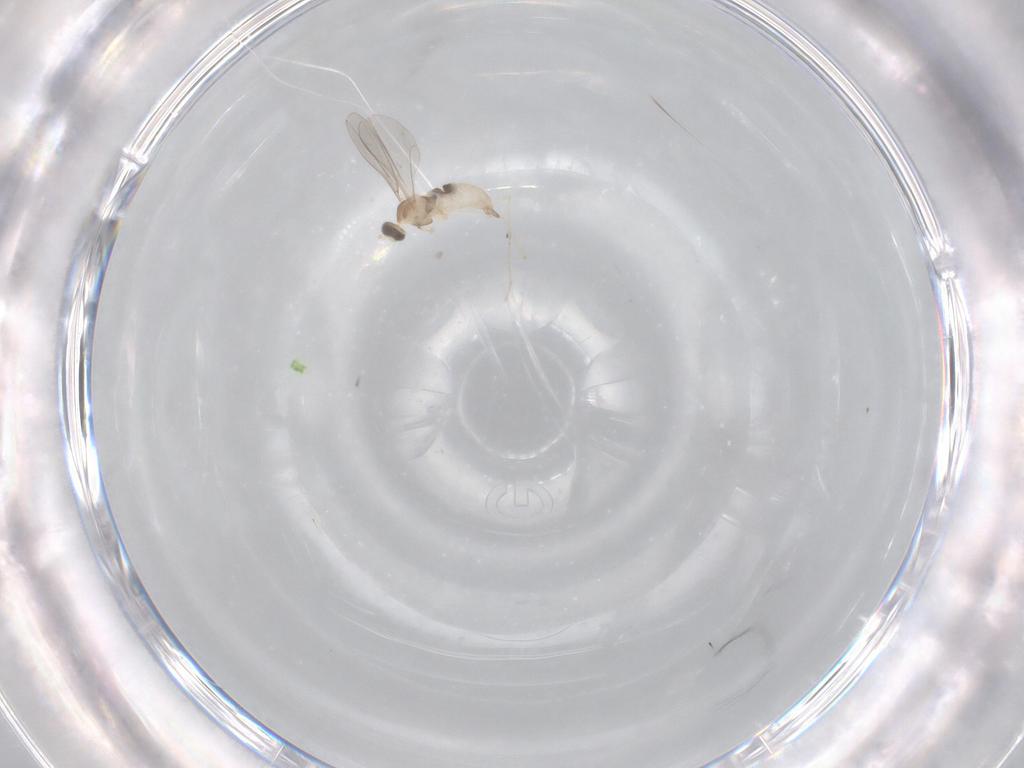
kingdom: Animalia
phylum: Arthropoda
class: Insecta
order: Diptera
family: Cecidomyiidae
